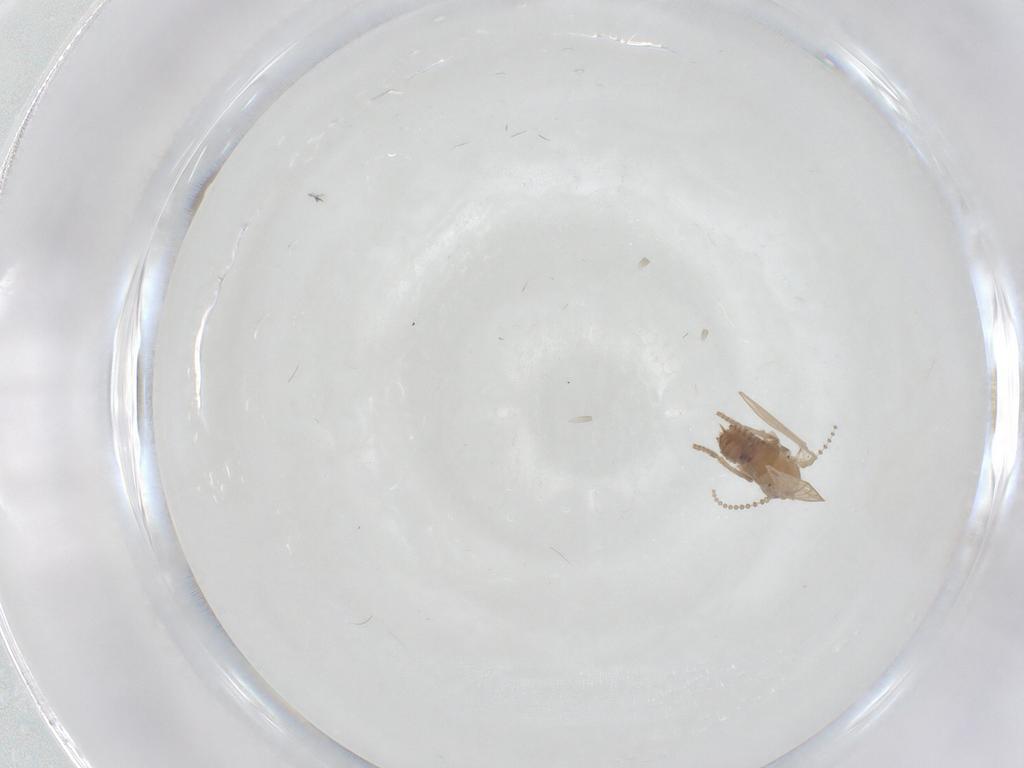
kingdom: Animalia
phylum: Arthropoda
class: Insecta
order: Diptera
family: Psychodidae
